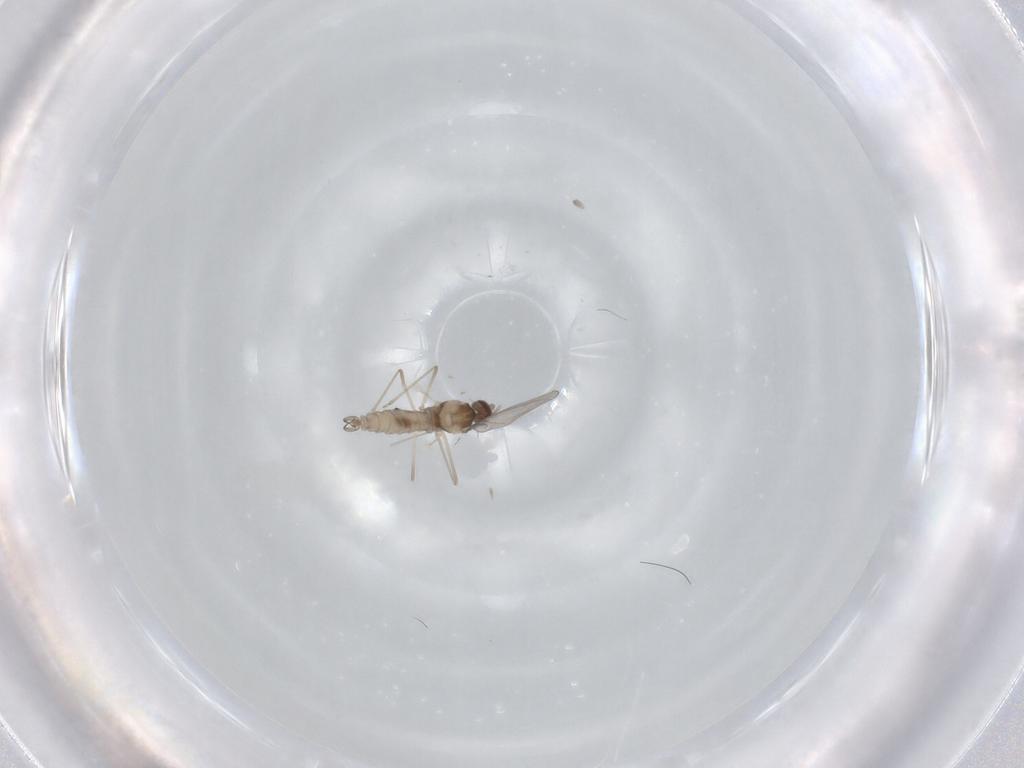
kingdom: Animalia
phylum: Arthropoda
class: Insecta
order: Diptera
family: Cecidomyiidae
